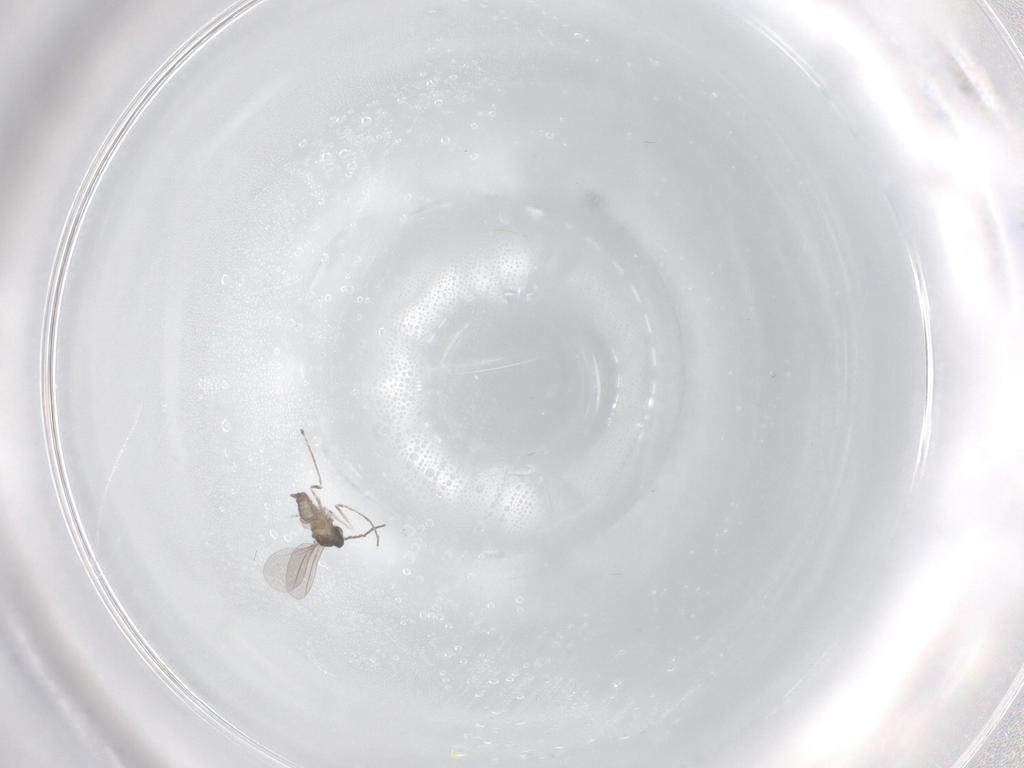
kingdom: Animalia
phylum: Arthropoda
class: Insecta
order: Diptera
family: Cecidomyiidae
